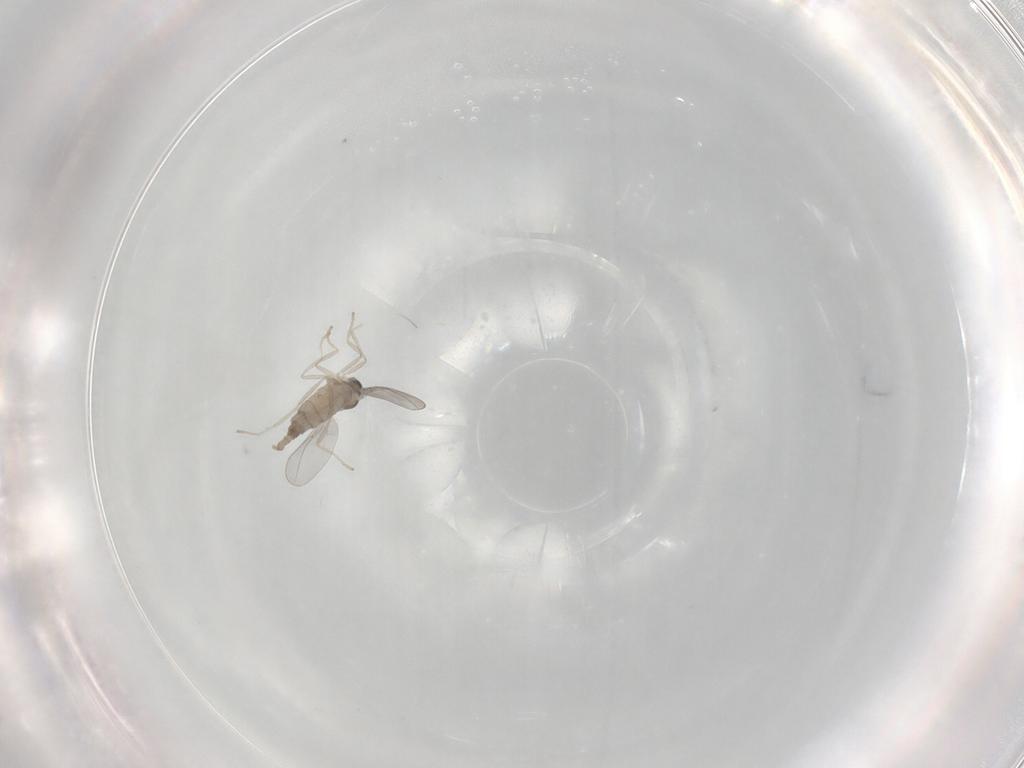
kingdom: Animalia
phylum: Arthropoda
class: Insecta
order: Diptera
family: Cecidomyiidae
